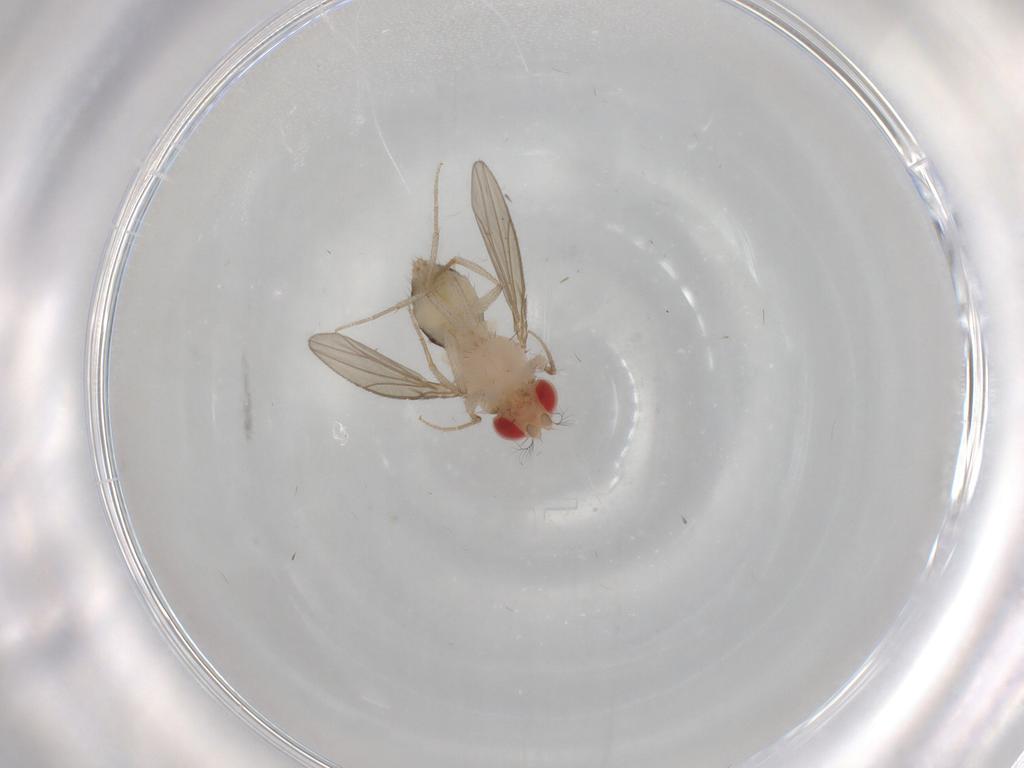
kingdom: Animalia
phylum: Arthropoda
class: Insecta
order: Diptera
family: Drosophilidae
